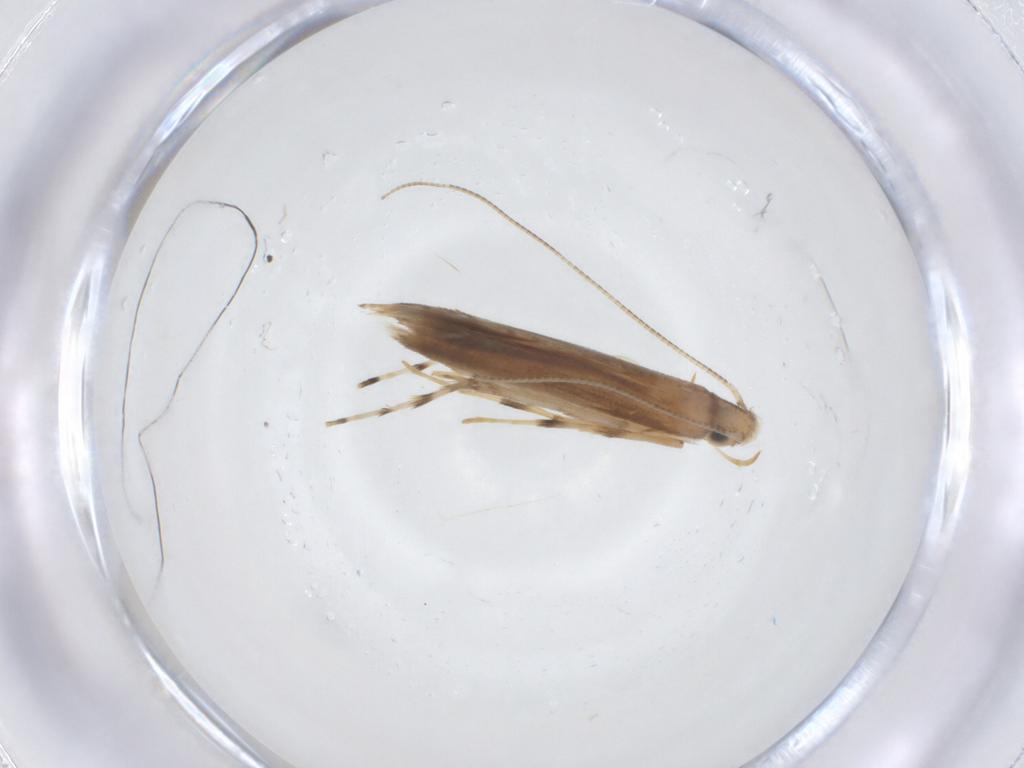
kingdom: Animalia
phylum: Arthropoda
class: Insecta
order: Lepidoptera
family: Gracillariidae
